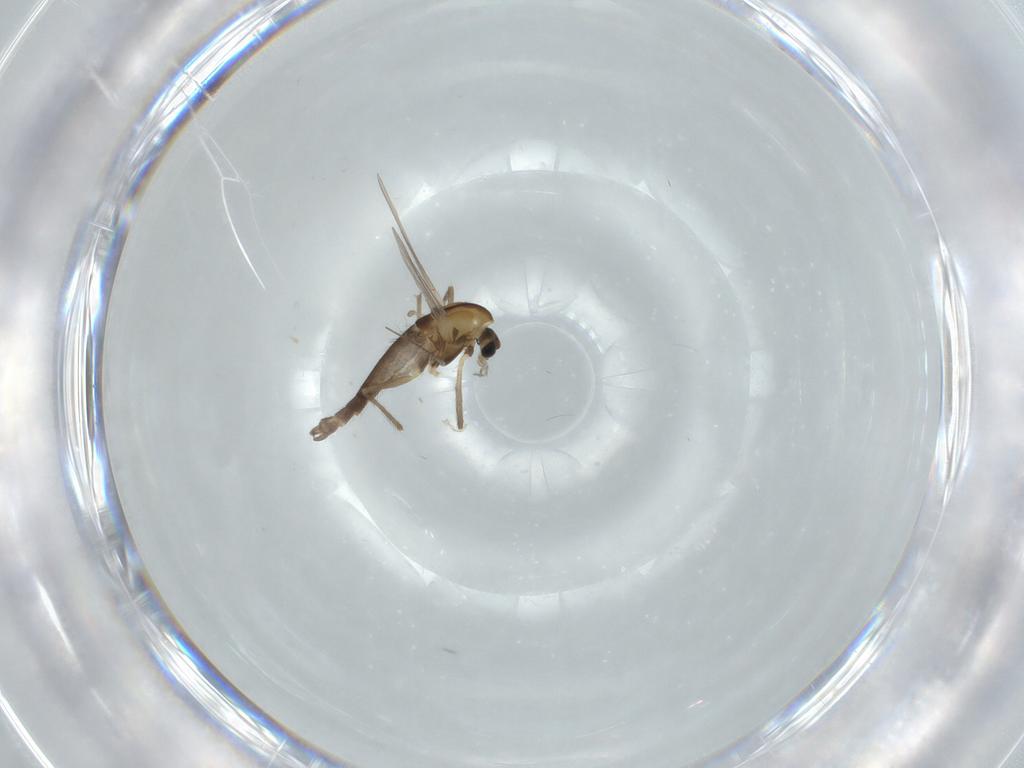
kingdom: Animalia
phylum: Arthropoda
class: Insecta
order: Diptera
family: Chironomidae
